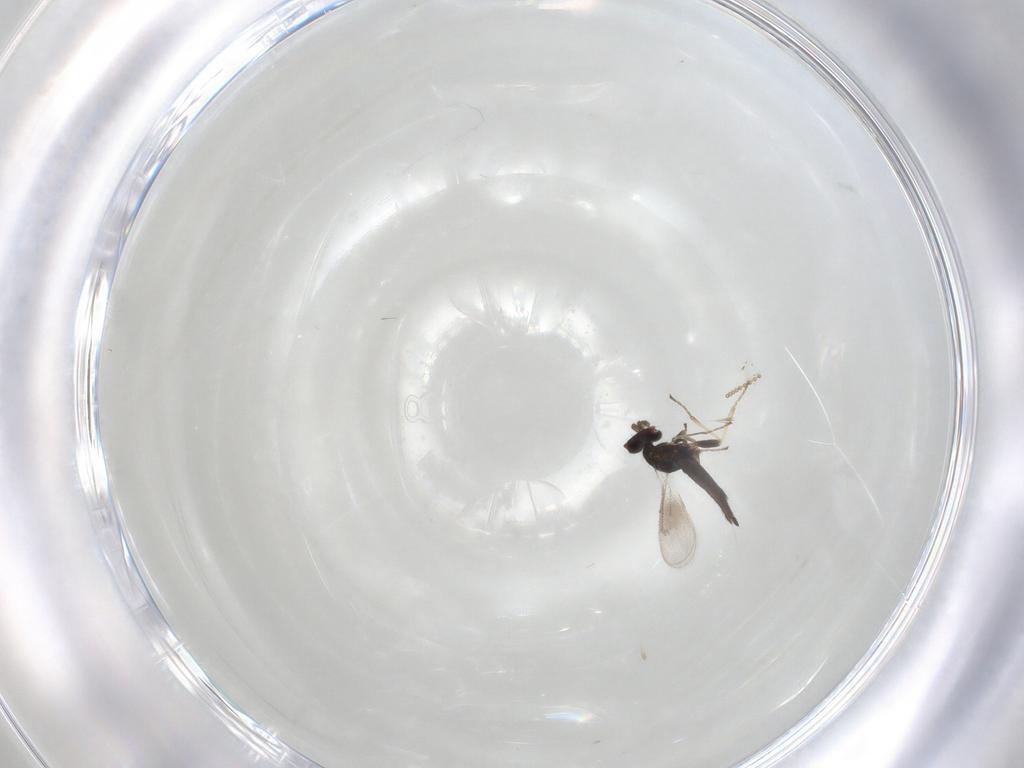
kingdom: Animalia
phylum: Arthropoda
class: Insecta
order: Hymenoptera
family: Eulophidae
